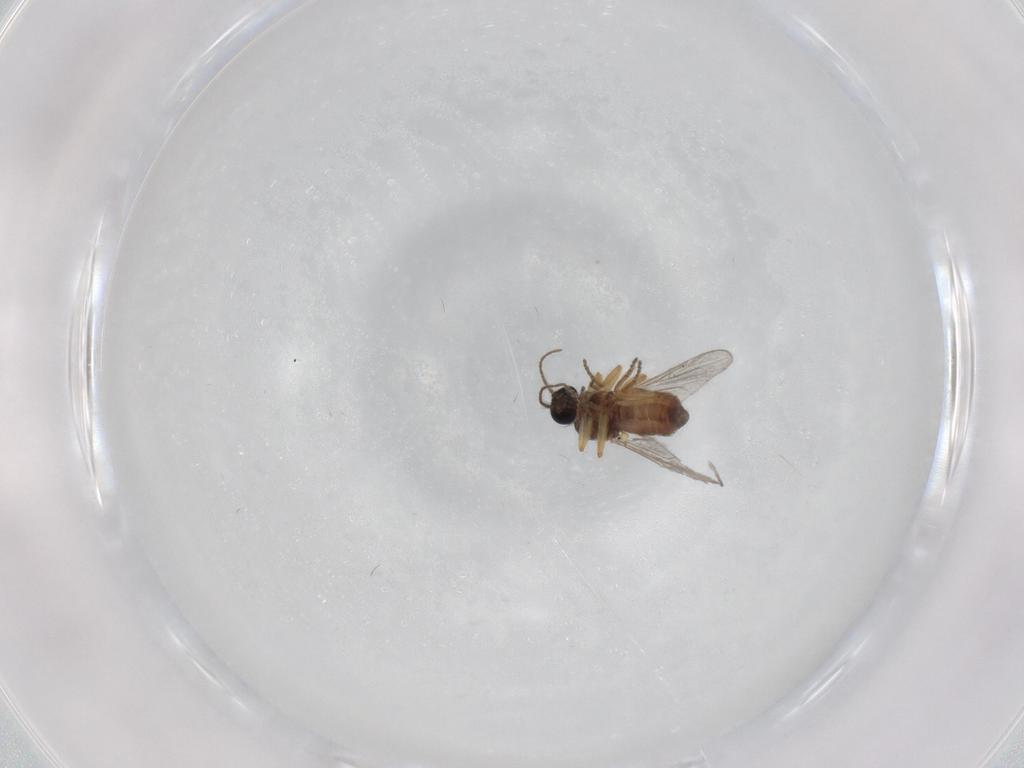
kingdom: Animalia
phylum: Arthropoda
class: Insecta
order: Diptera
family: Ceratopogonidae
